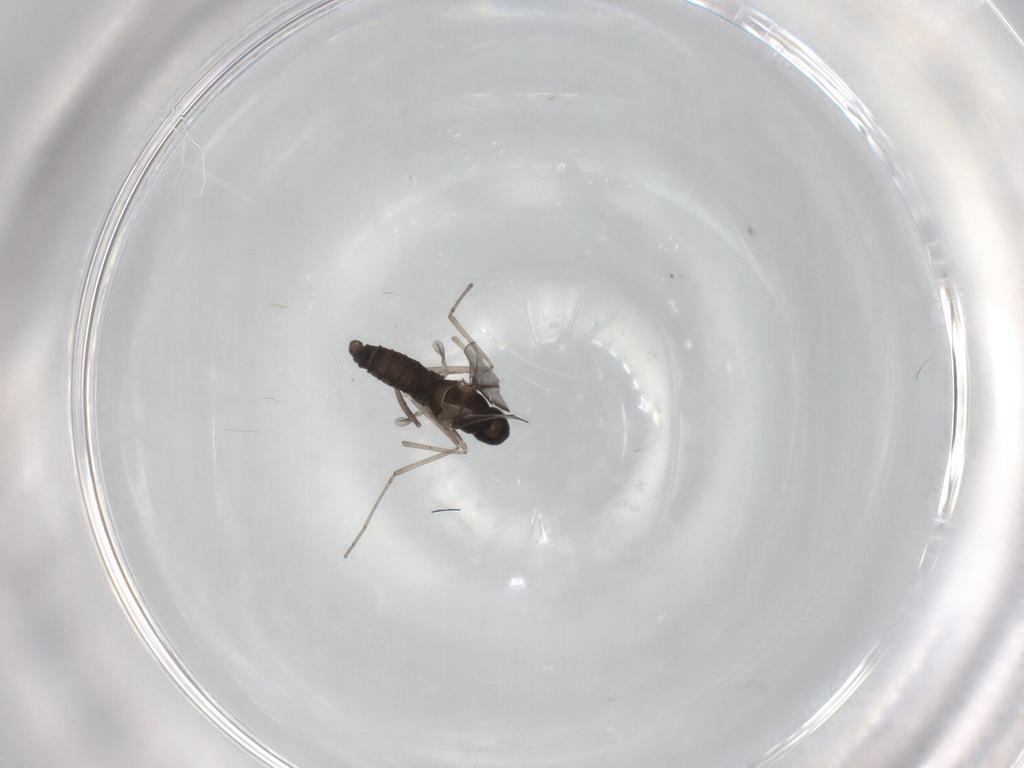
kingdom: Animalia
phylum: Arthropoda
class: Insecta
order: Diptera
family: Cecidomyiidae
